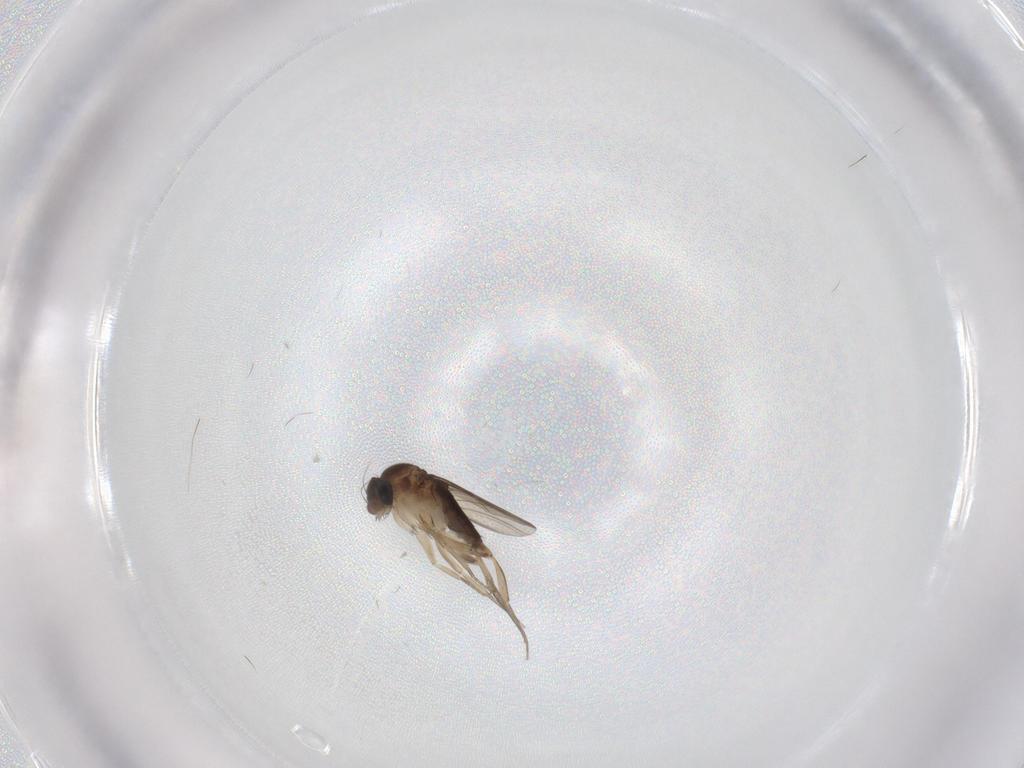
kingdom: Animalia
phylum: Arthropoda
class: Insecta
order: Diptera
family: Phoridae
